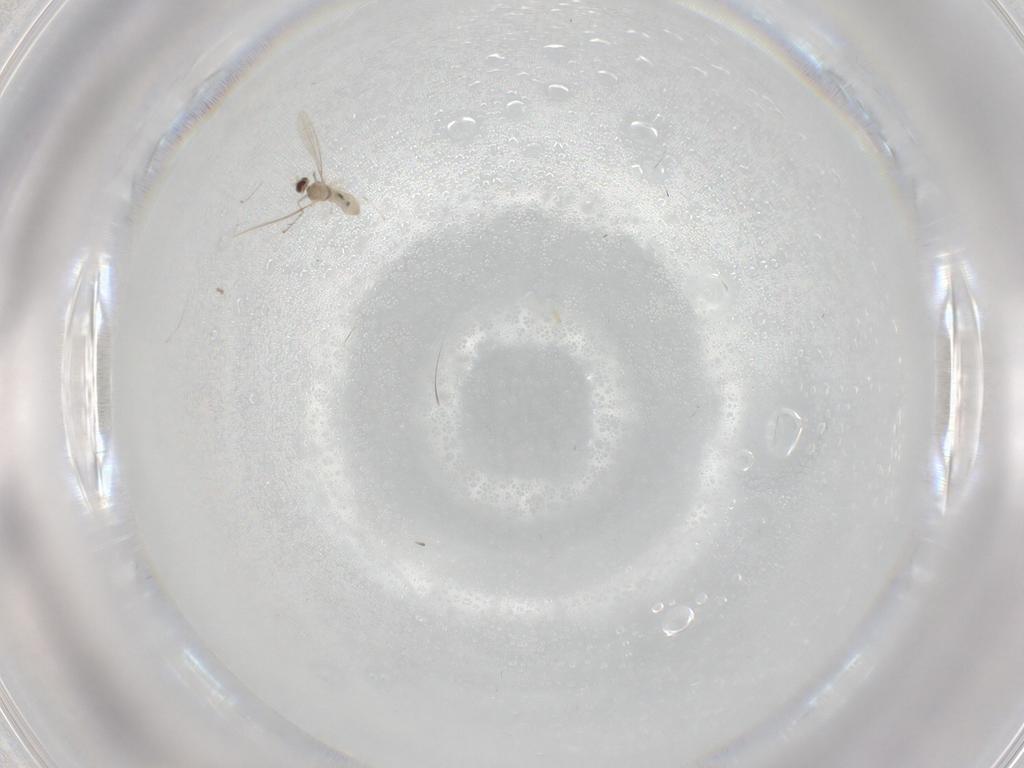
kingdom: Animalia
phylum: Arthropoda
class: Insecta
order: Diptera
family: Cecidomyiidae
